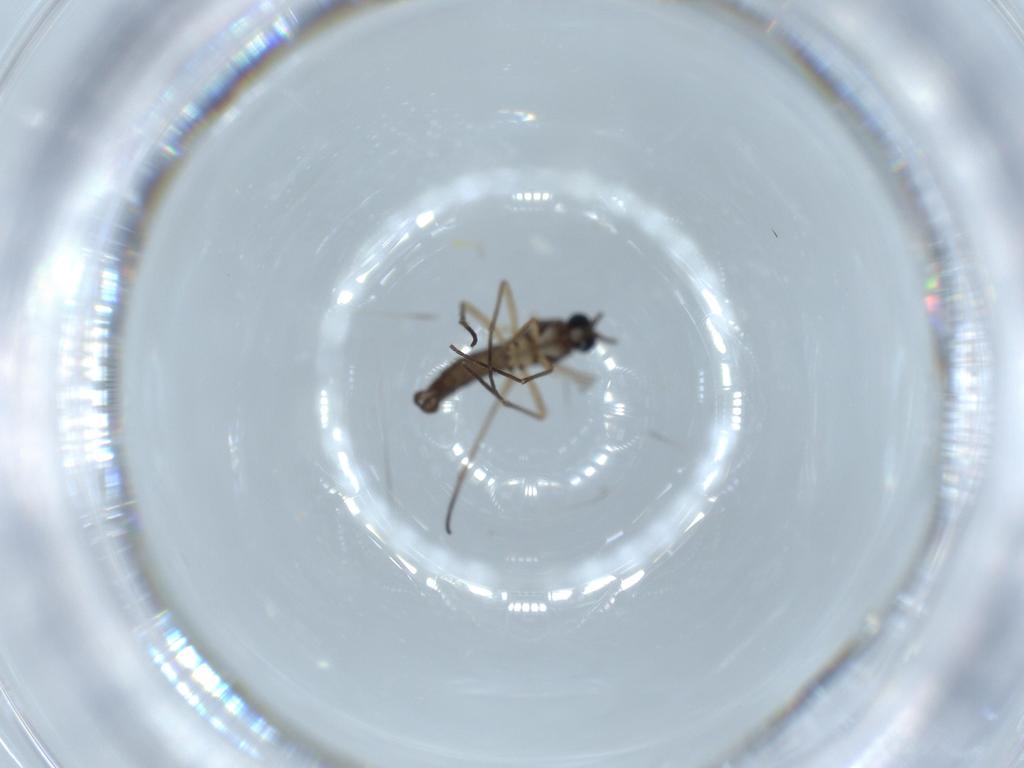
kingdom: Animalia
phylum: Arthropoda
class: Insecta
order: Diptera
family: Sciaridae
